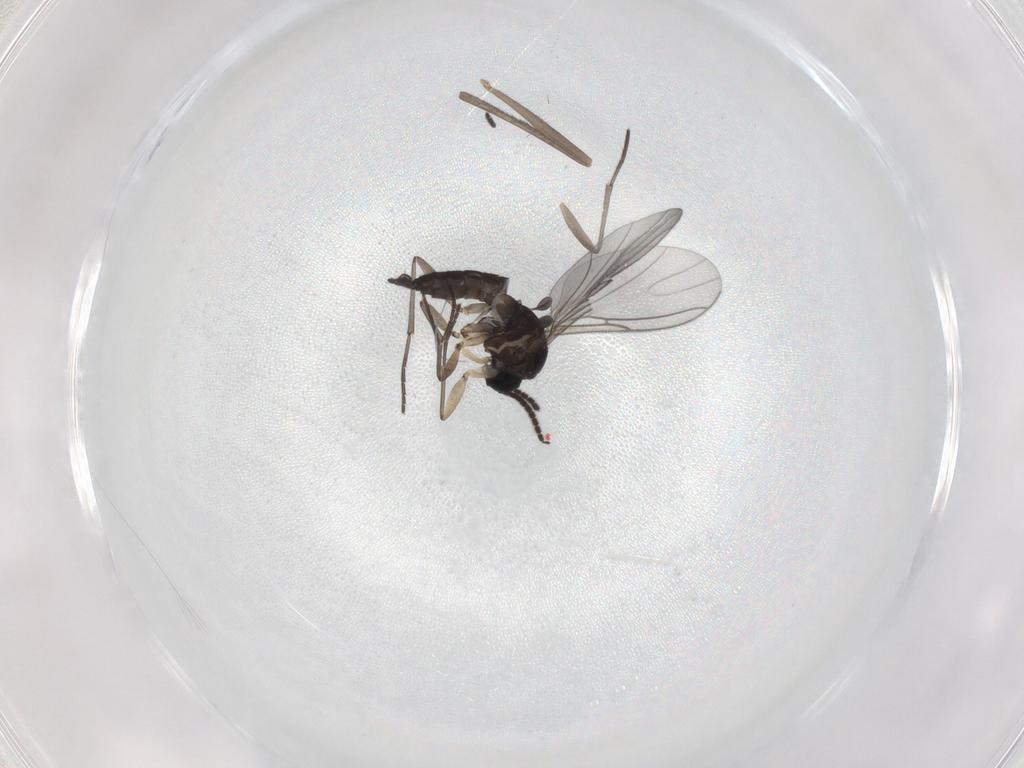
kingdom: Animalia
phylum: Arthropoda
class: Insecta
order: Diptera
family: Cecidomyiidae
